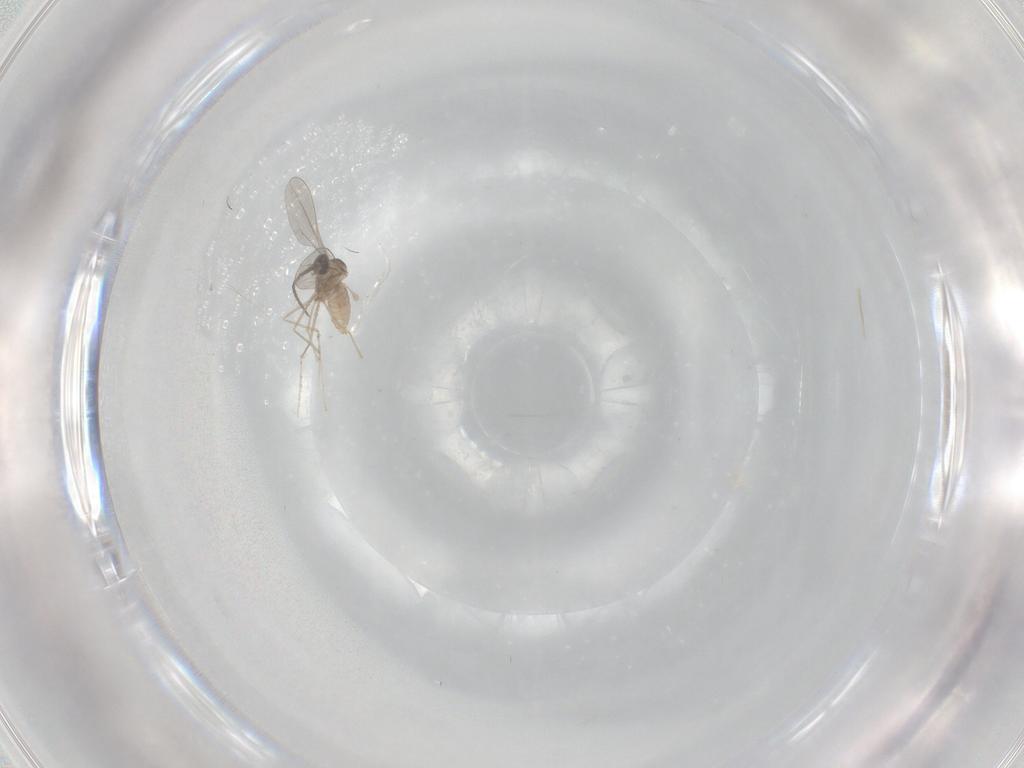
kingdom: Animalia
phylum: Arthropoda
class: Insecta
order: Diptera
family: Cecidomyiidae
